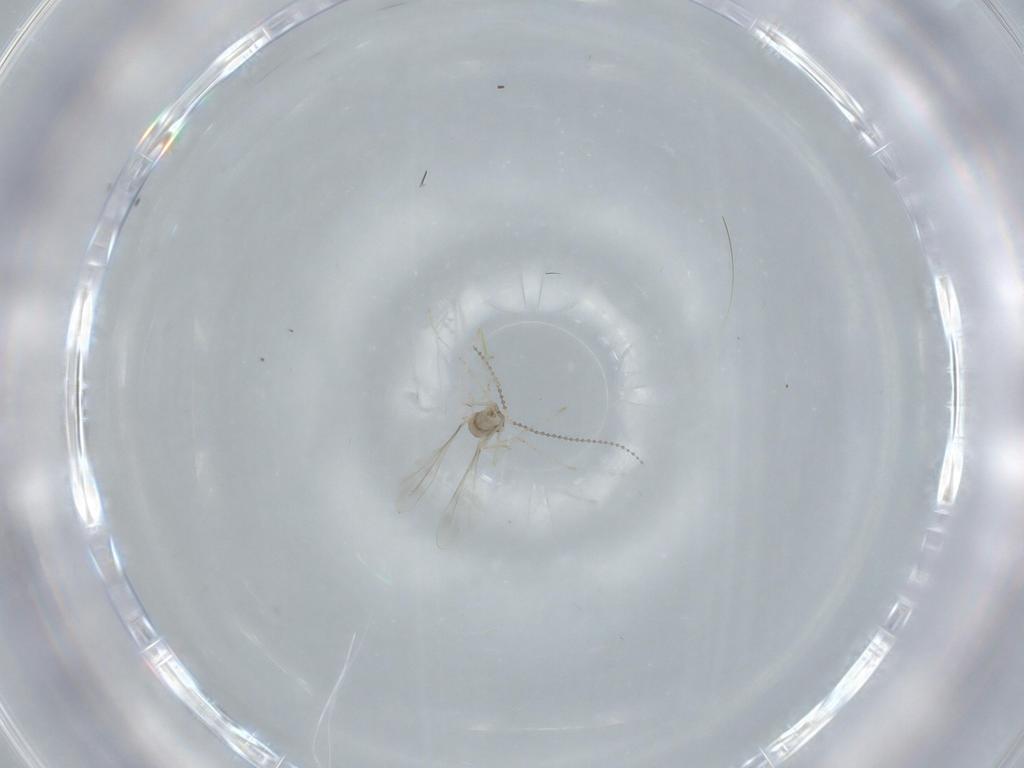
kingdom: Animalia
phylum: Arthropoda
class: Insecta
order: Diptera
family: Cecidomyiidae
